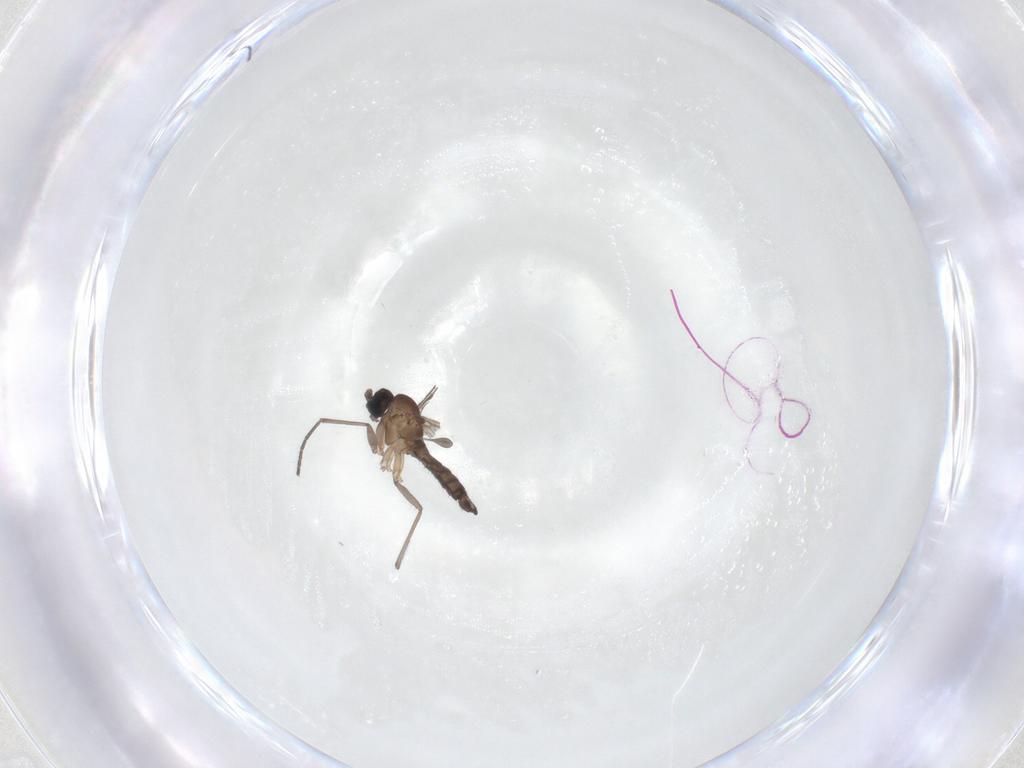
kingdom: Animalia
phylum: Arthropoda
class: Insecta
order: Diptera
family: Sciaridae
